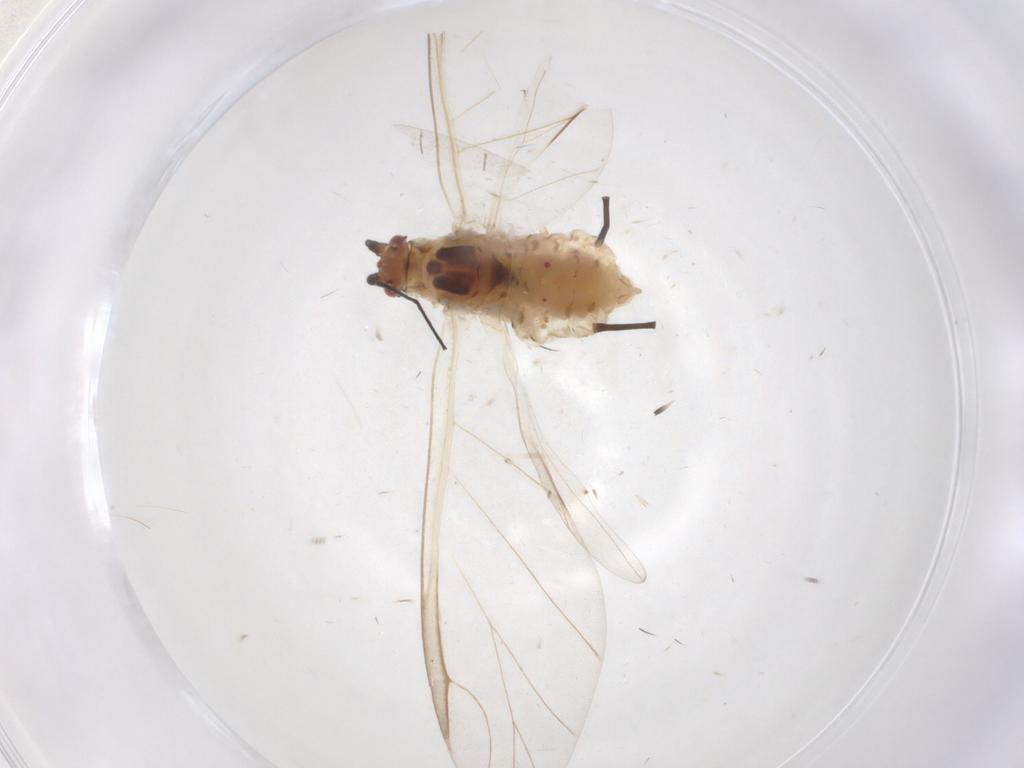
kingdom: Animalia
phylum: Arthropoda
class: Insecta
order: Hemiptera
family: Aphididae
